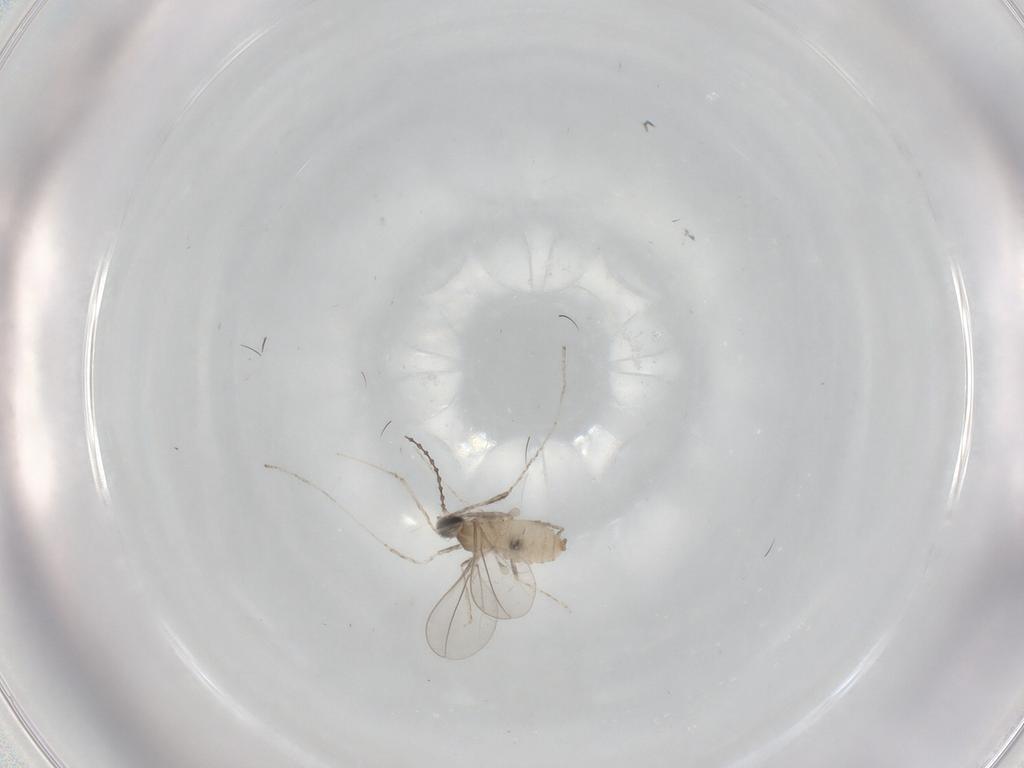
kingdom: Animalia
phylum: Arthropoda
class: Insecta
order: Diptera
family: Cecidomyiidae
